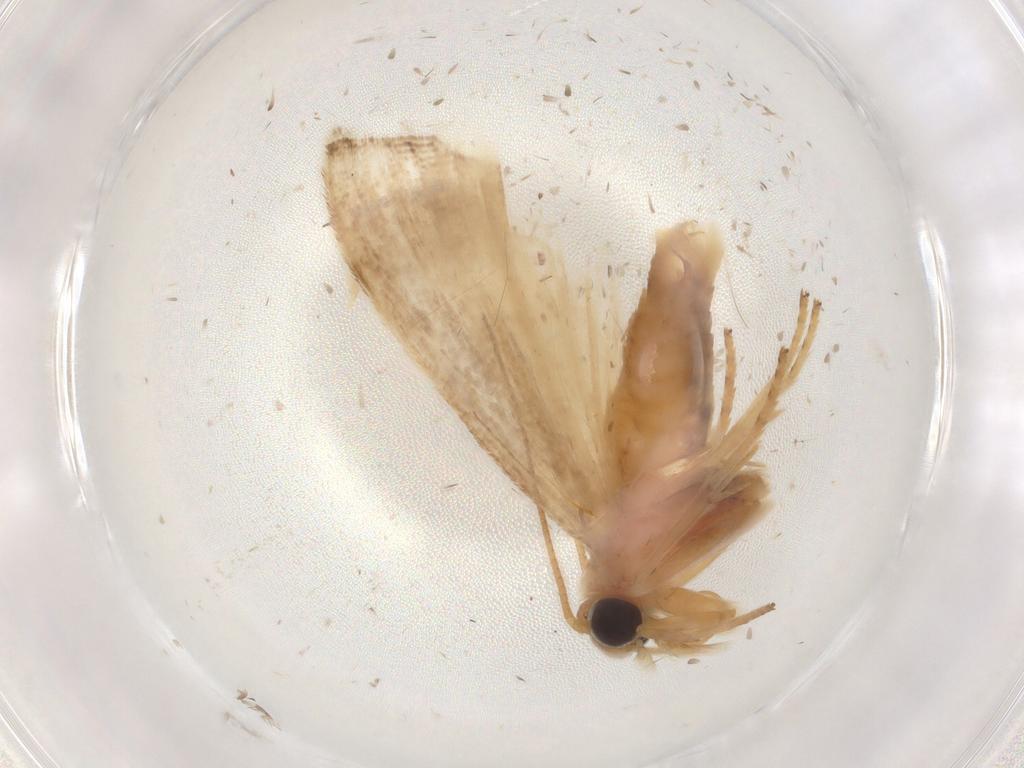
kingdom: Animalia
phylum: Arthropoda
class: Insecta
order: Lepidoptera
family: Pyralidae
